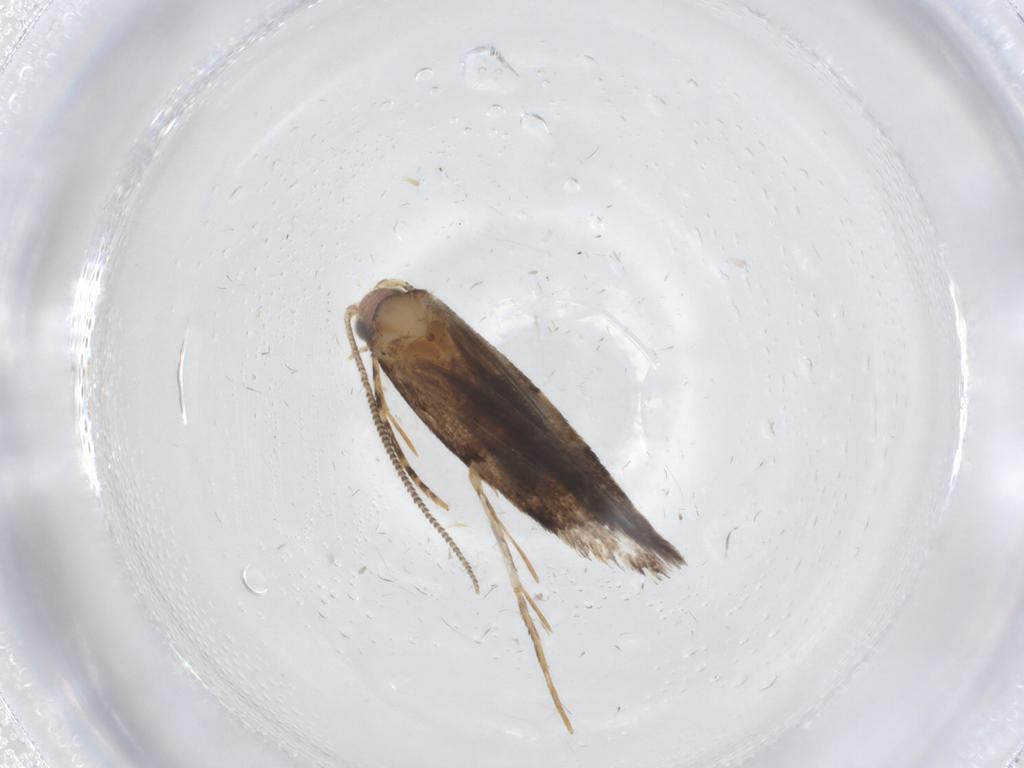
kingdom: Animalia
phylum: Arthropoda
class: Insecta
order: Lepidoptera
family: Tineidae
